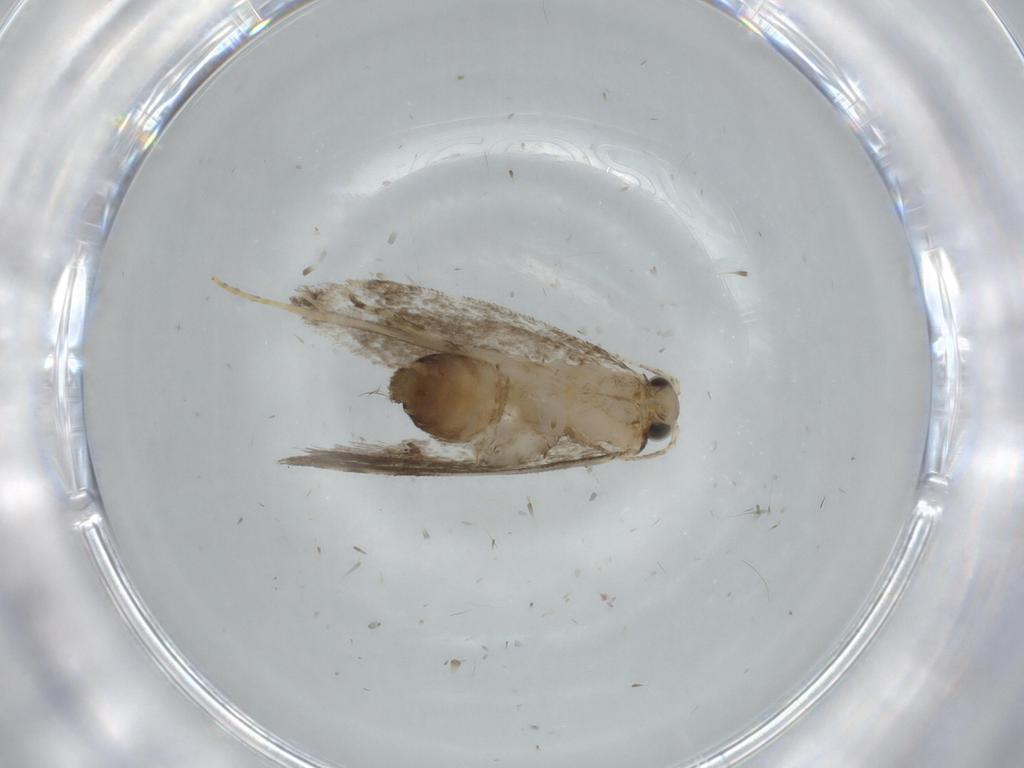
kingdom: Animalia
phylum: Arthropoda
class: Insecta
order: Lepidoptera
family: Tineidae
